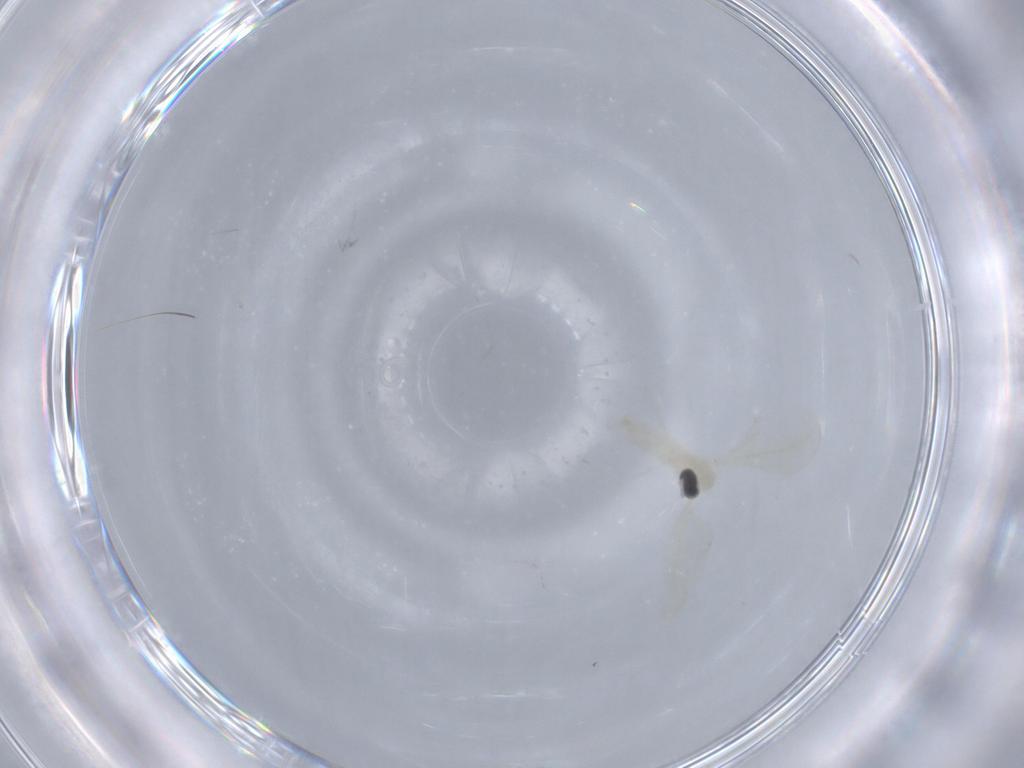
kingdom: Animalia
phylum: Arthropoda
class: Insecta
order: Diptera
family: Cecidomyiidae
